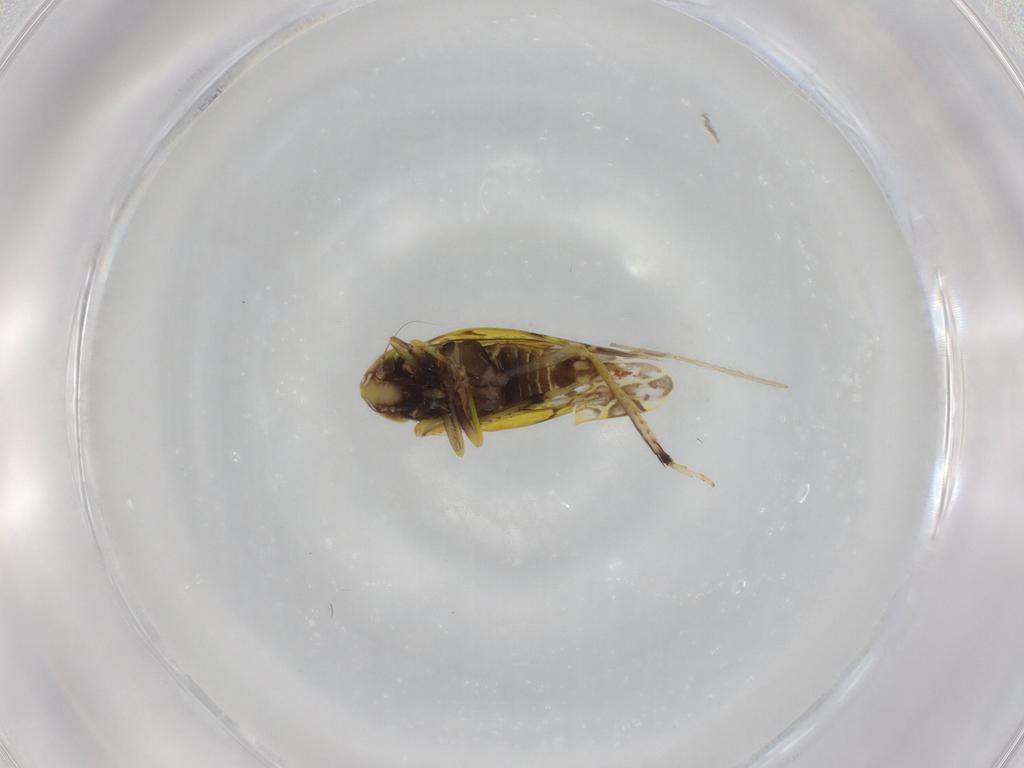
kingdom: Animalia
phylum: Arthropoda
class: Insecta
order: Hemiptera
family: Cicadellidae
